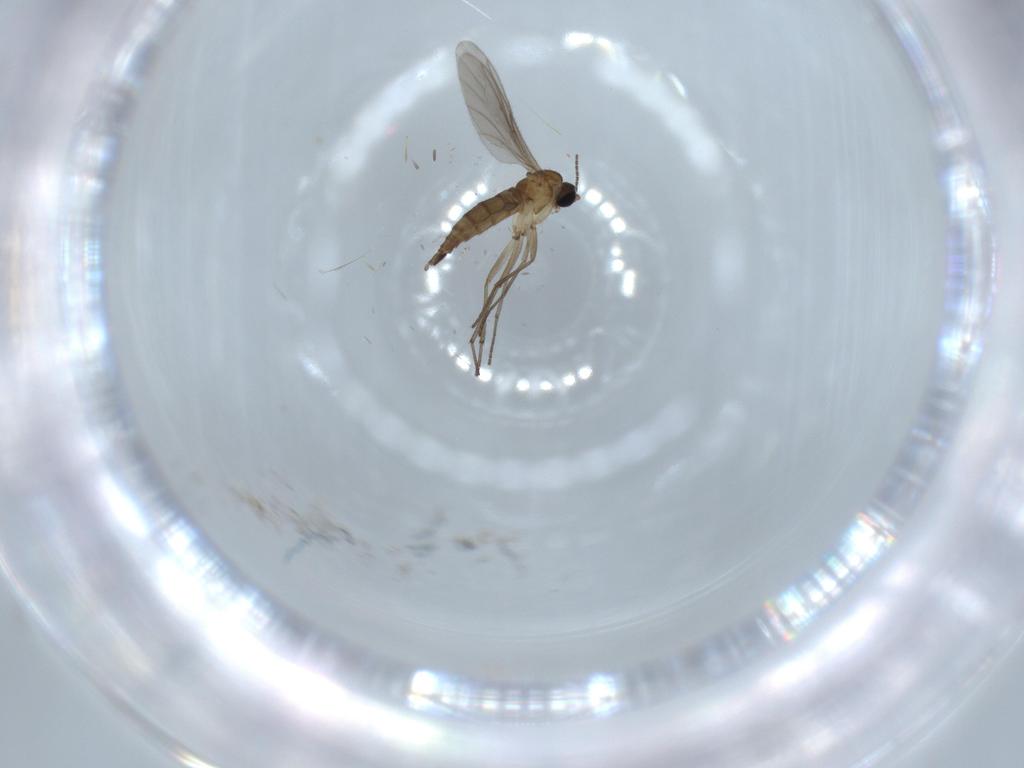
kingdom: Animalia
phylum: Arthropoda
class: Insecta
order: Diptera
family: Sciaridae
